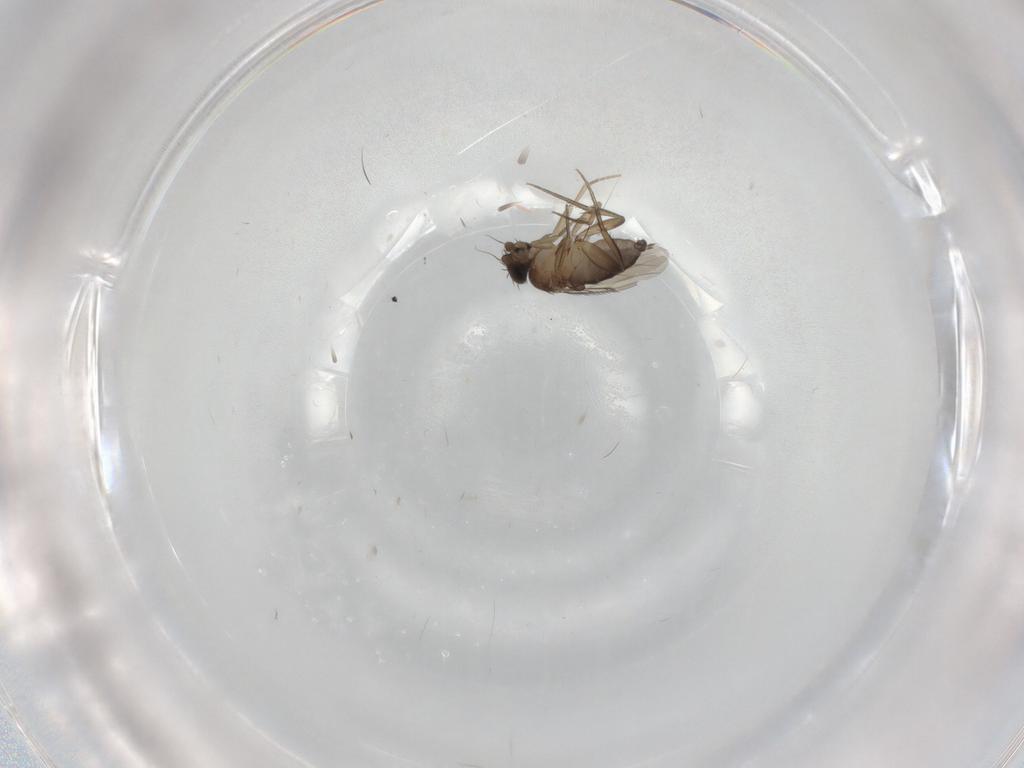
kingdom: Animalia
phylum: Arthropoda
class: Insecta
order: Diptera
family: Phoridae
